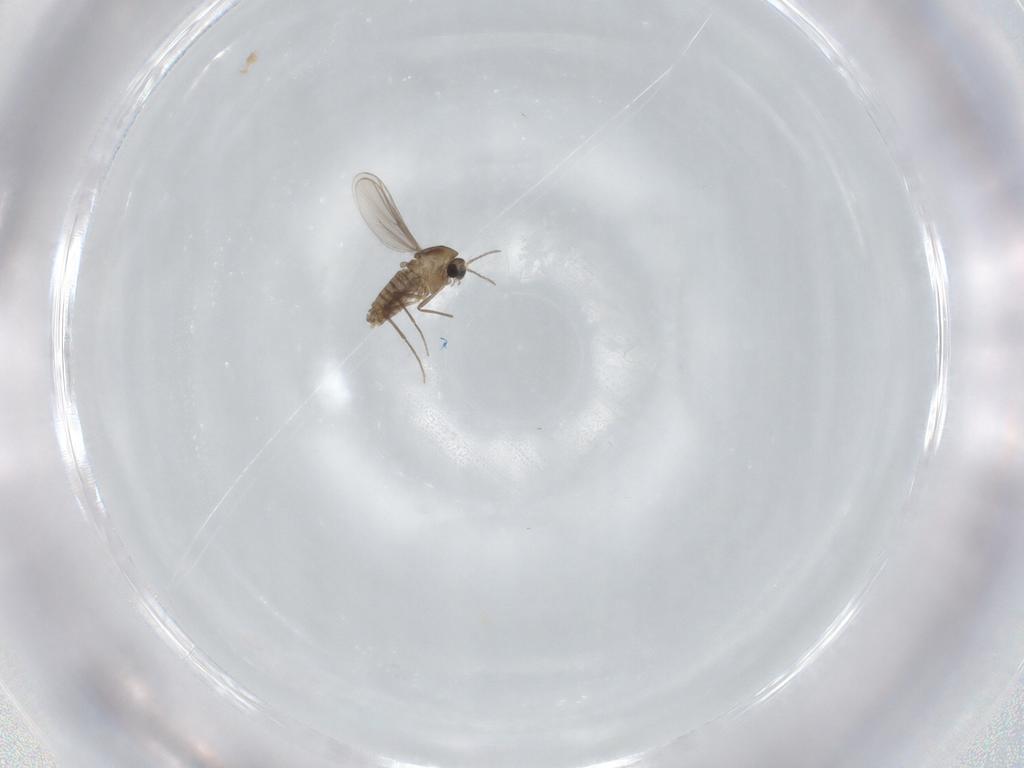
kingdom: Animalia
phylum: Arthropoda
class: Insecta
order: Diptera
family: Chironomidae
